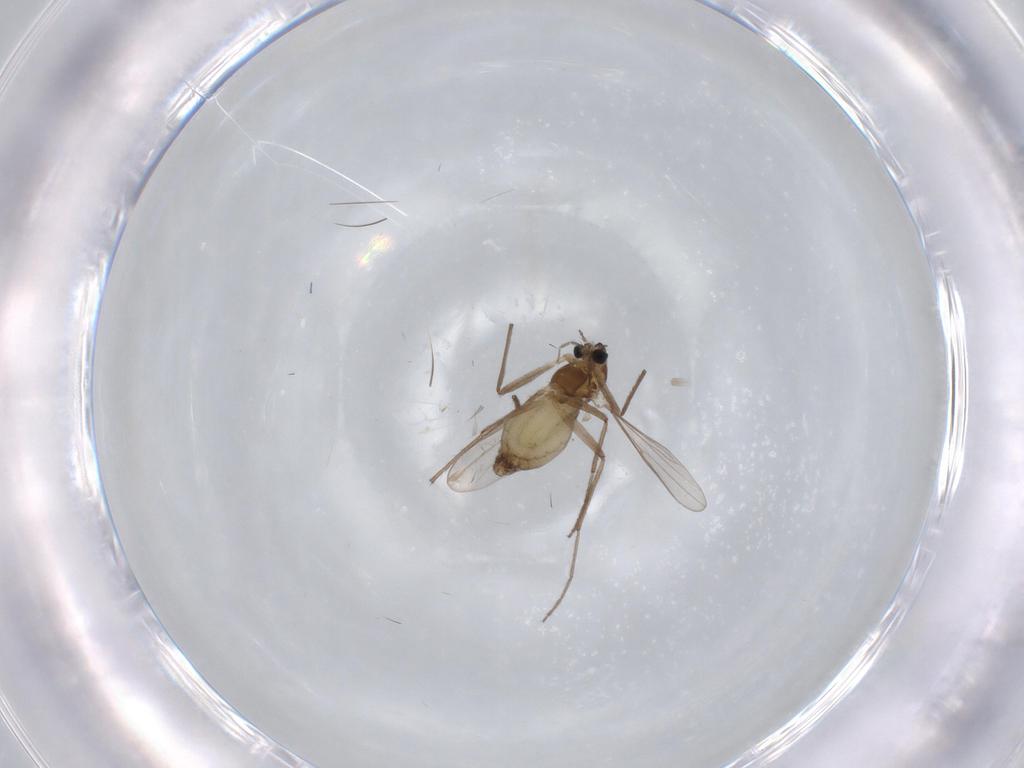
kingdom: Animalia
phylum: Arthropoda
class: Insecta
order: Diptera
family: Chironomidae
